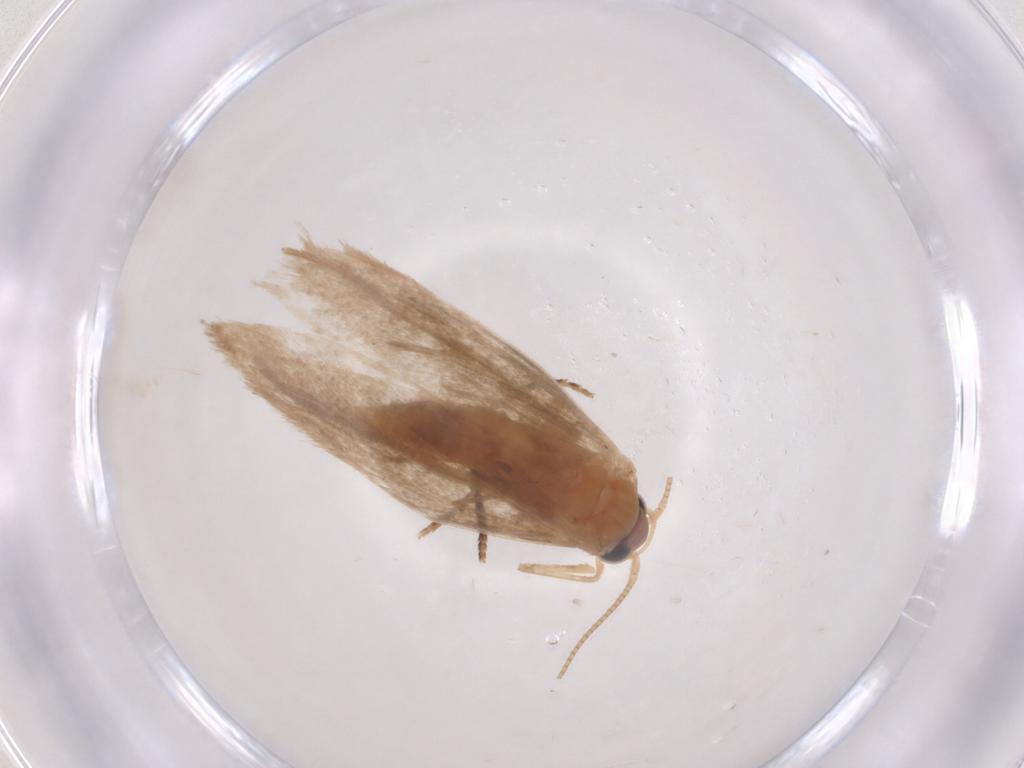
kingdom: Animalia
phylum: Arthropoda
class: Insecta
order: Lepidoptera
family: Nepticulidae
